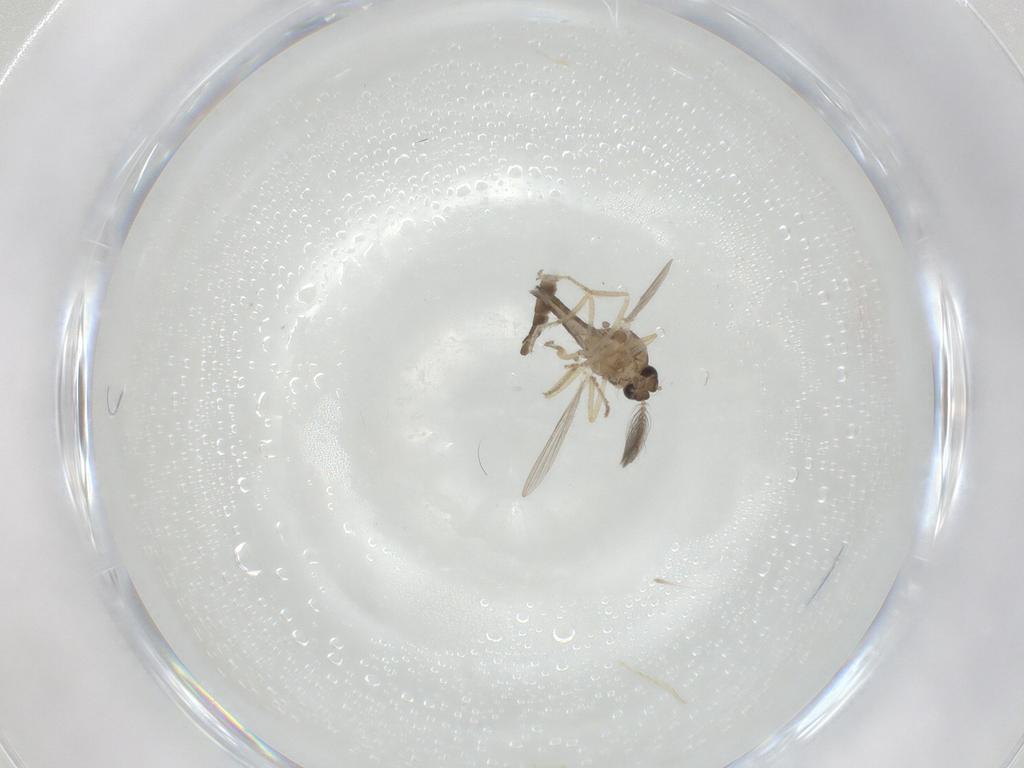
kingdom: Animalia
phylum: Arthropoda
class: Insecta
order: Diptera
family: Ceratopogonidae
